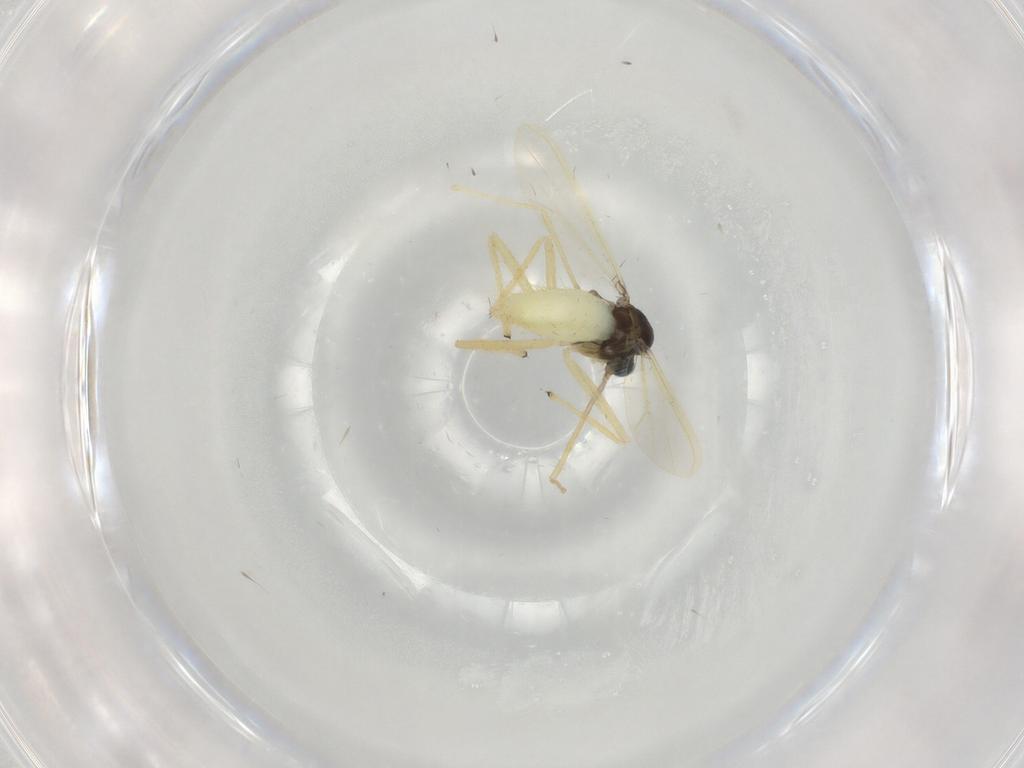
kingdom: Animalia
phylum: Arthropoda
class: Insecta
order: Diptera
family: Chironomidae
